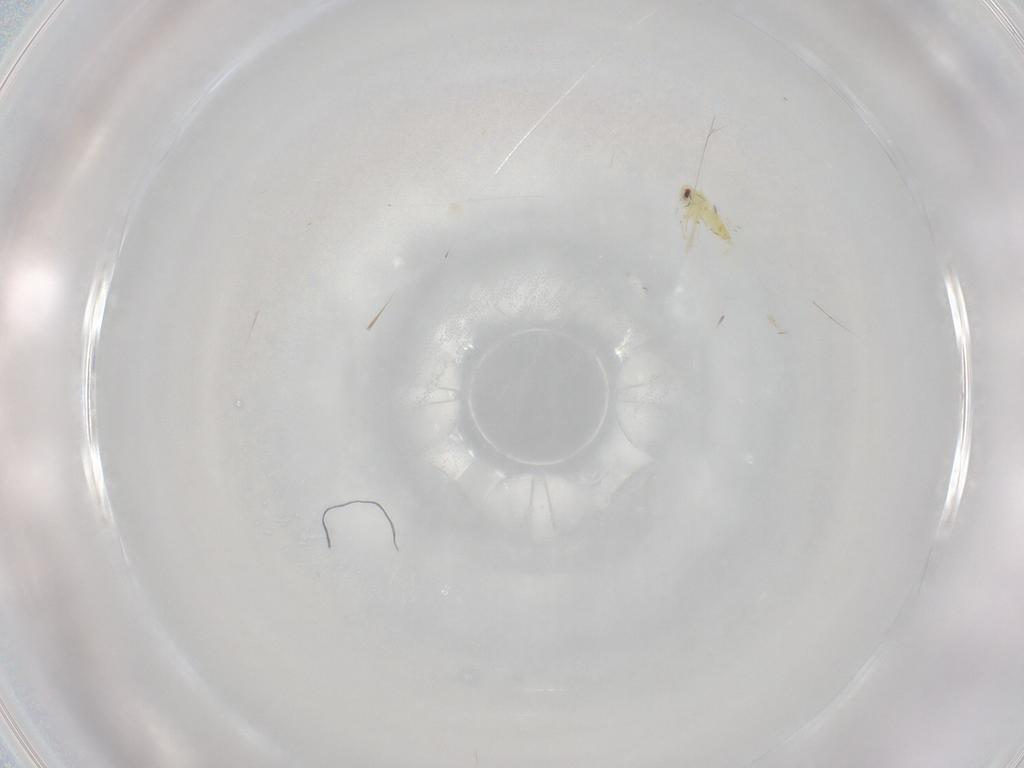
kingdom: Animalia
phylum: Arthropoda
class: Insecta
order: Hemiptera
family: Aleyrodidae
